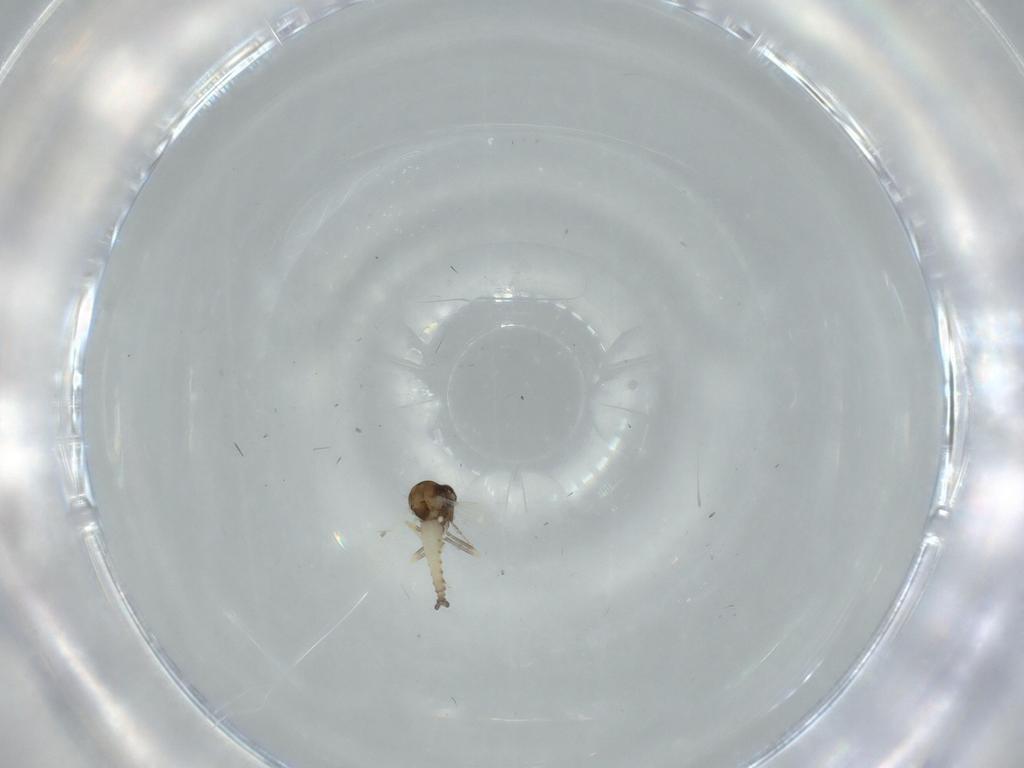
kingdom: Animalia
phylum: Arthropoda
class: Insecta
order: Diptera
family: Ceratopogonidae
